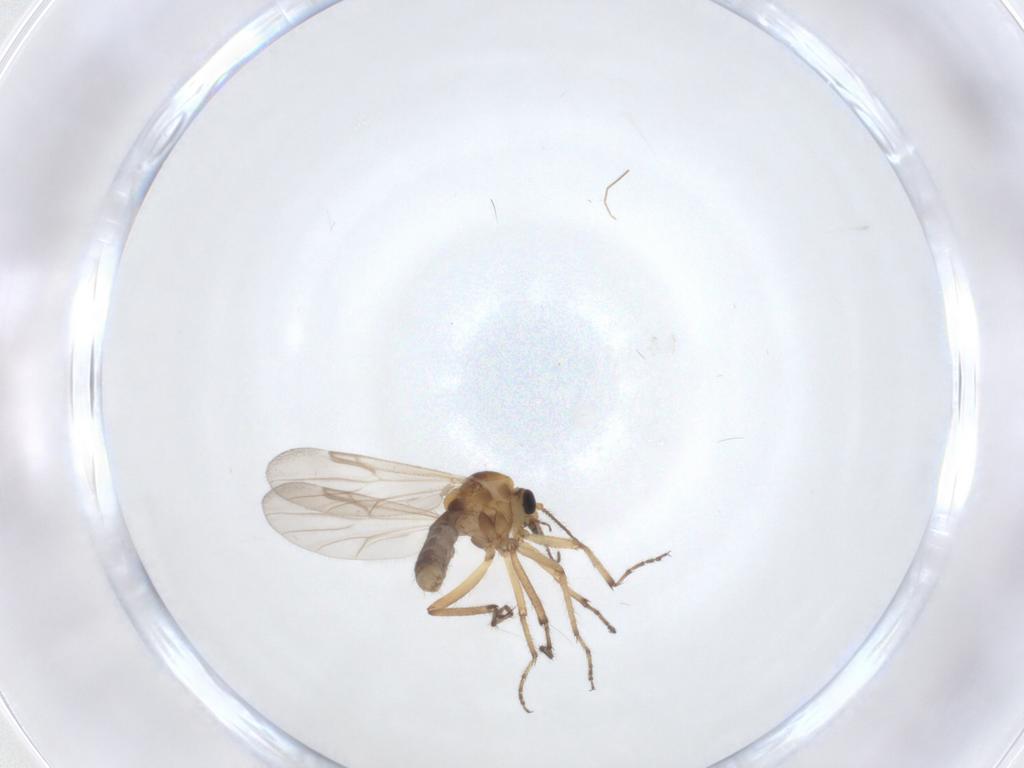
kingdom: Animalia
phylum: Arthropoda
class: Insecta
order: Diptera
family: Ceratopogonidae
